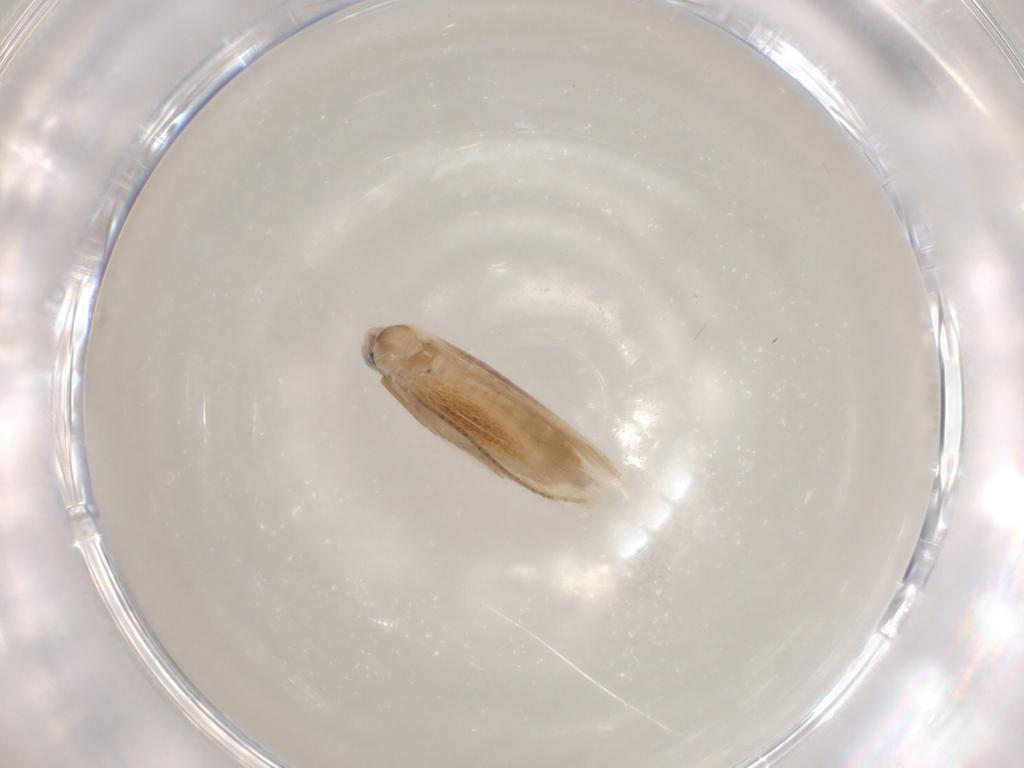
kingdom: Animalia
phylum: Arthropoda
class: Insecta
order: Lepidoptera
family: Bucculatricidae
